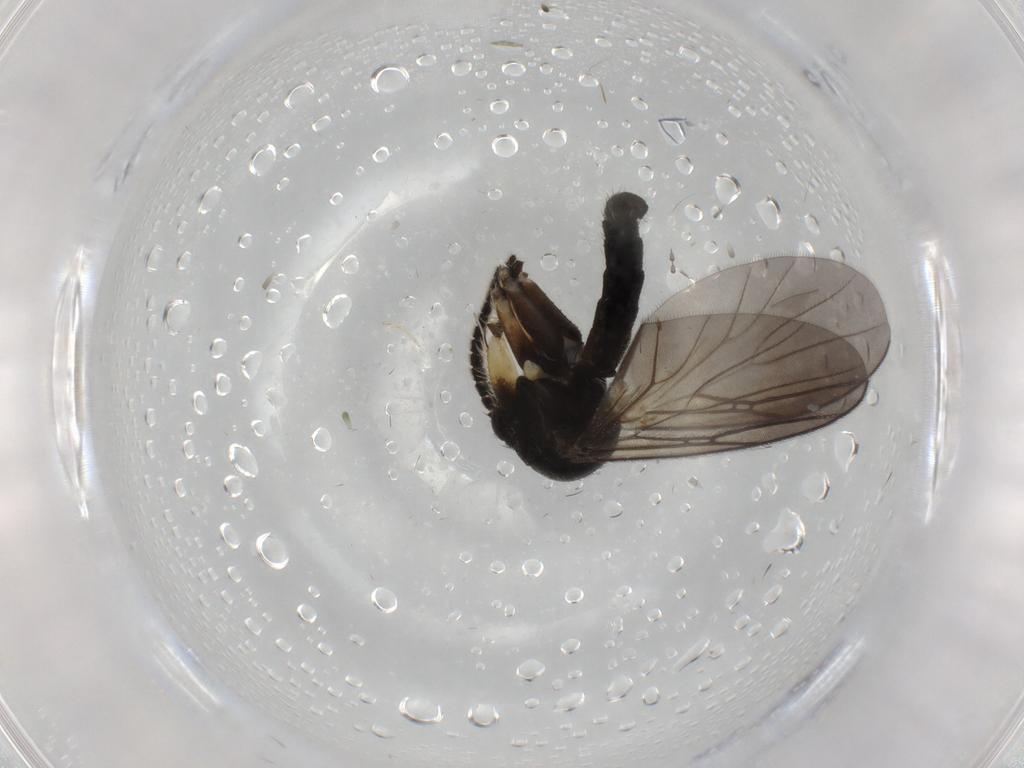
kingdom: Animalia
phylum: Arthropoda
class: Insecta
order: Diptera
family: Mycetophilidae
